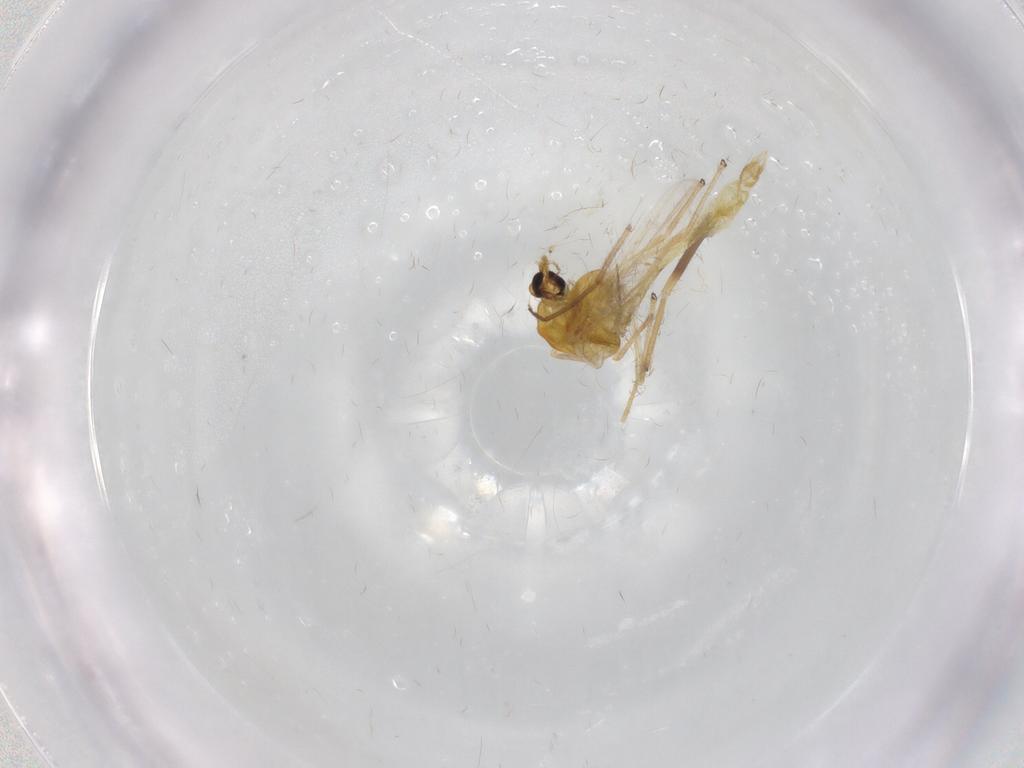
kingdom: Animalia
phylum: Arthropoda
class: Insecta
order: Diptera
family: Chironomidae
